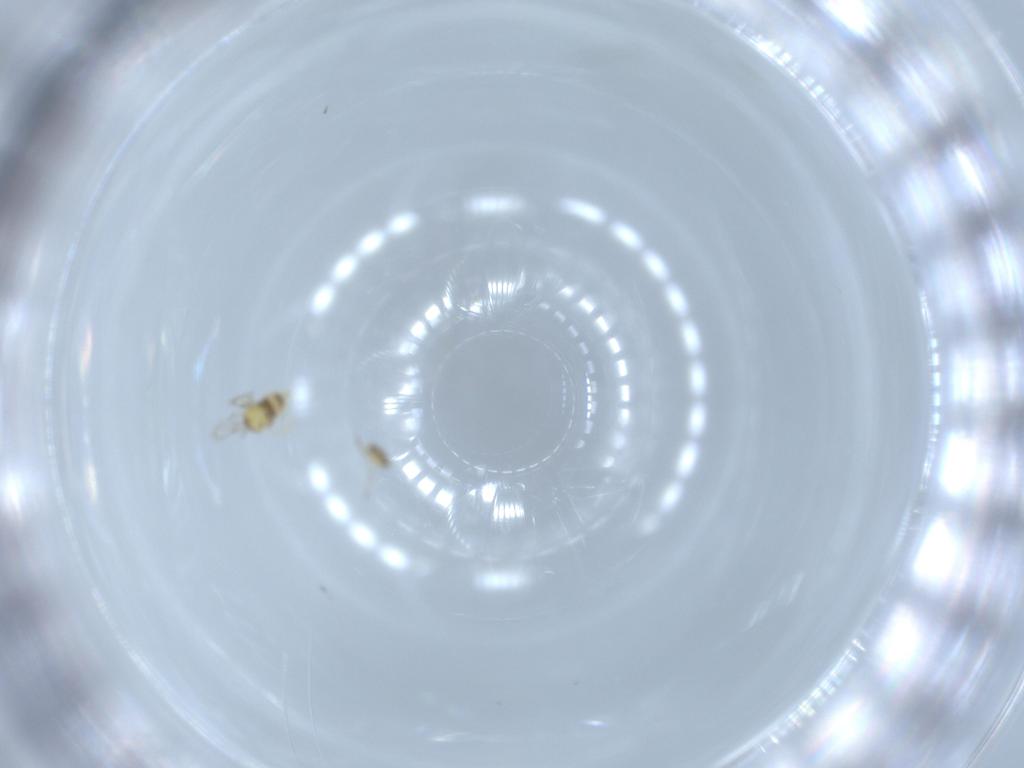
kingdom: Animalia
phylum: Arthropoda
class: Insecta
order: Hymenoptera
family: Aphelinidae
